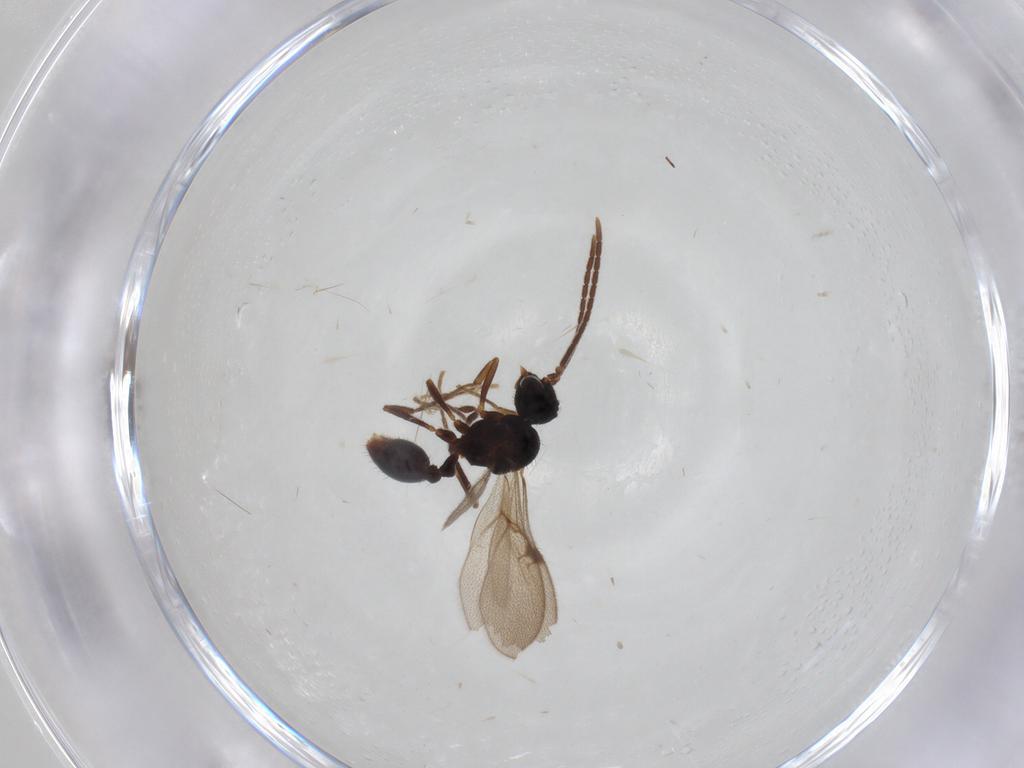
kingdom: Animalia
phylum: Arthropoda
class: Insecta
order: Hymenoptera
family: Formicidae
